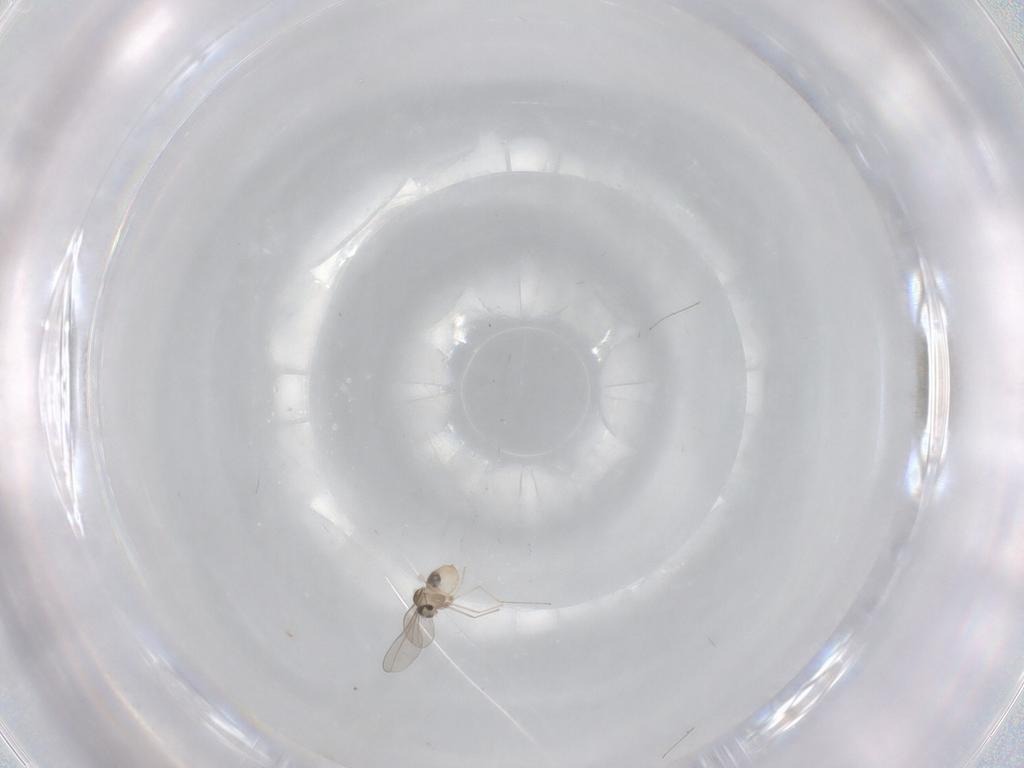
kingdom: Animalia
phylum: Arthropoda
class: Insecta
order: Diptera
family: Cecidomyiidae
